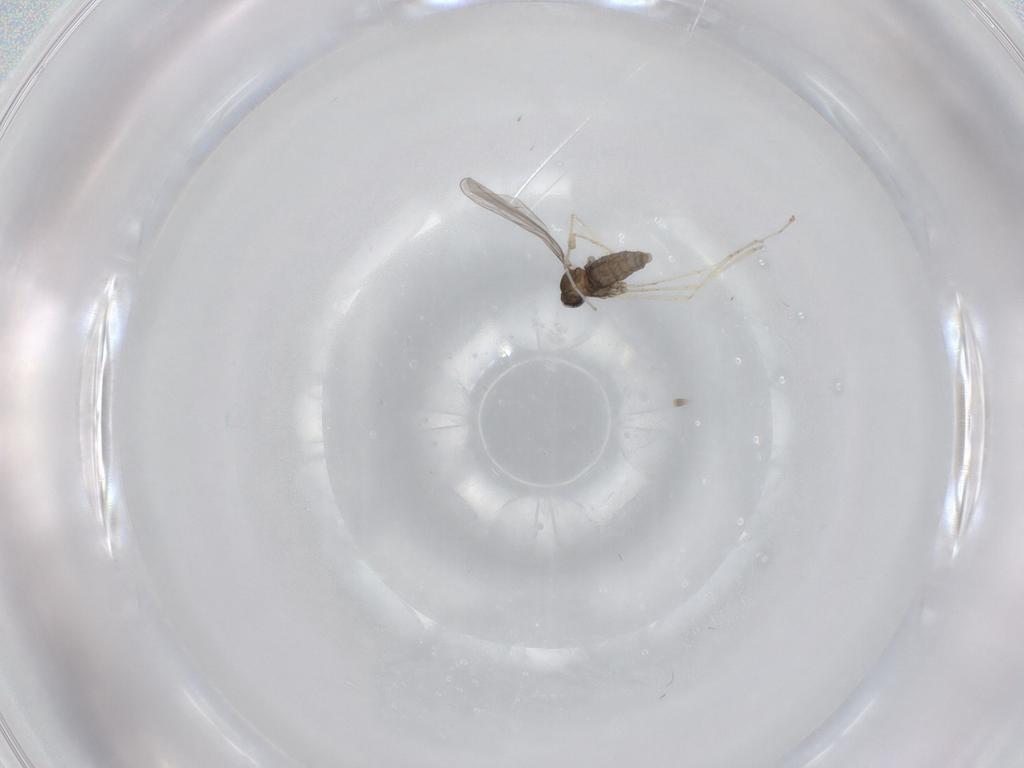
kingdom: Animalia
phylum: Arthropoda
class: Insecta
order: Diptera
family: Cecidomyiidae
